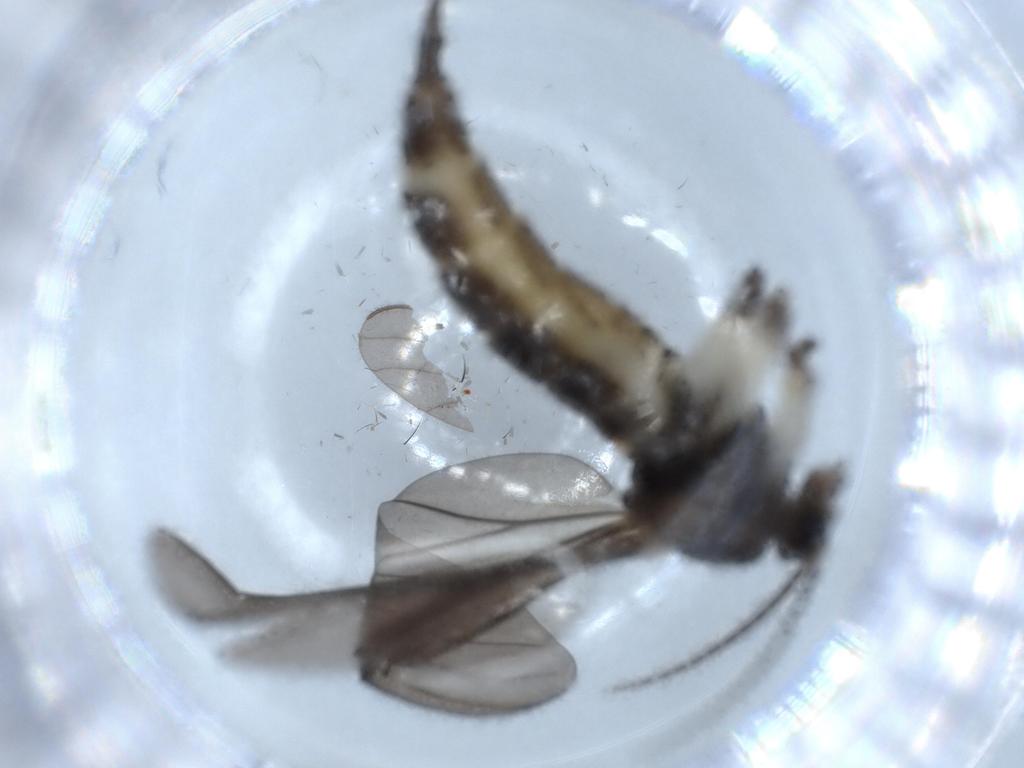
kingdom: Animalia
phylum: Arthropoda
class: Insecta
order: Diptera
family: Sciaridae
